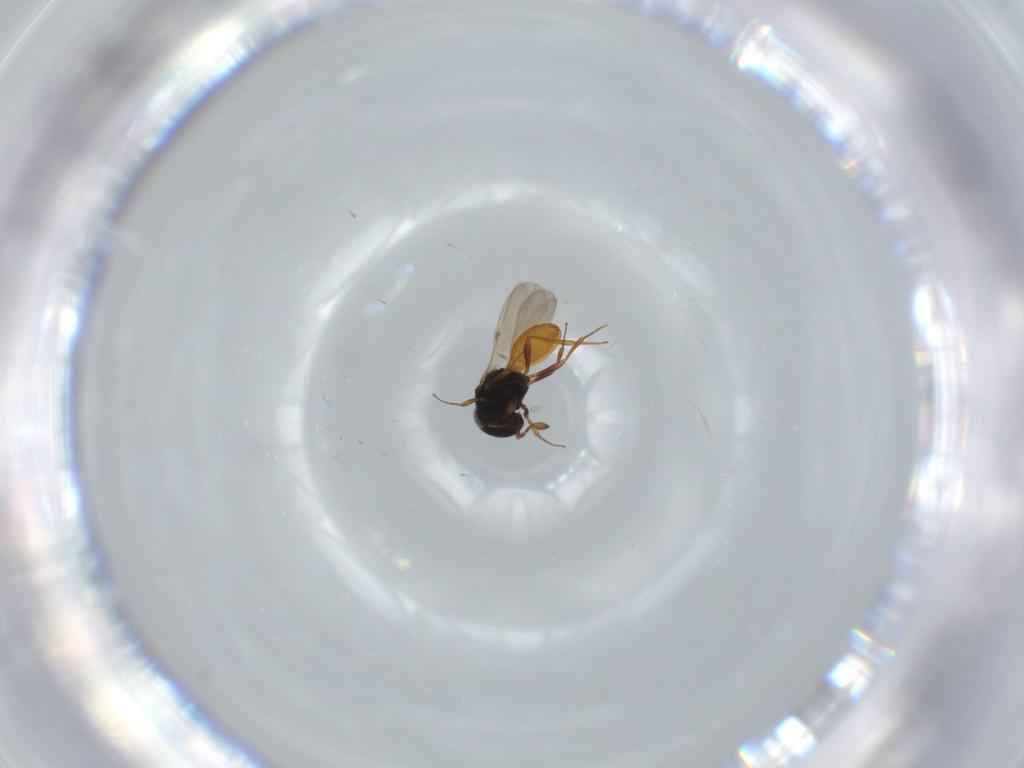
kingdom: Animalia
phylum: Arthropoda
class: Insecta
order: Hymenoptera
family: Scelionidae
